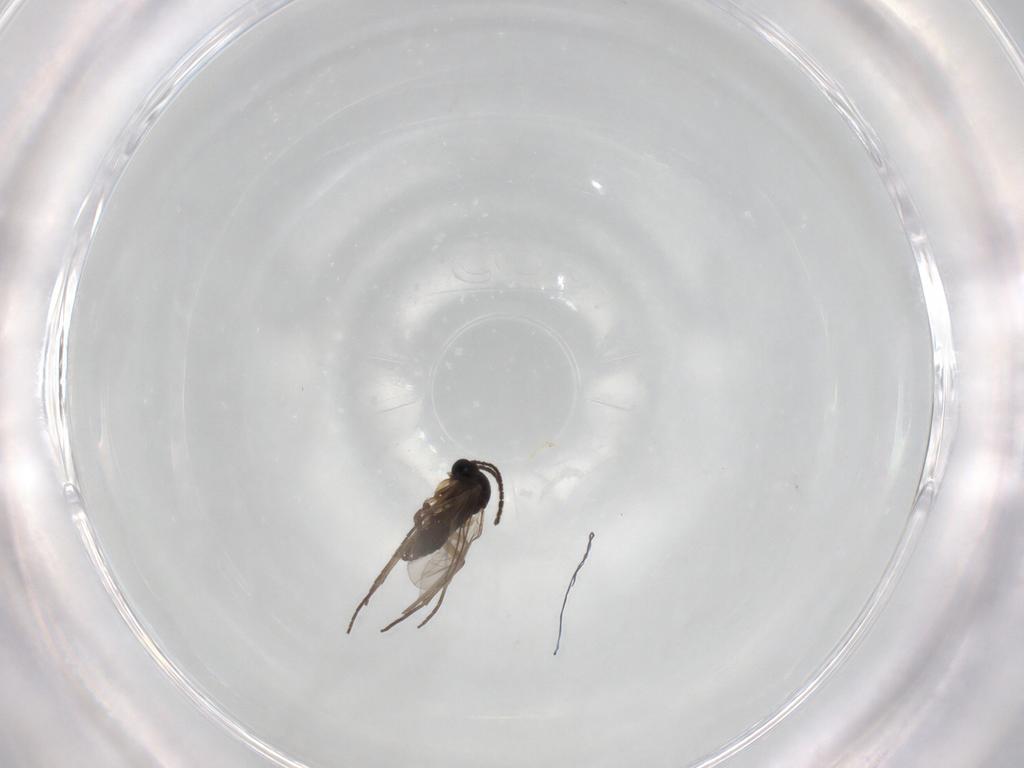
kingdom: Animalia
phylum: Arthropoda
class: Insecta
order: Diptera
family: Sciaridae
